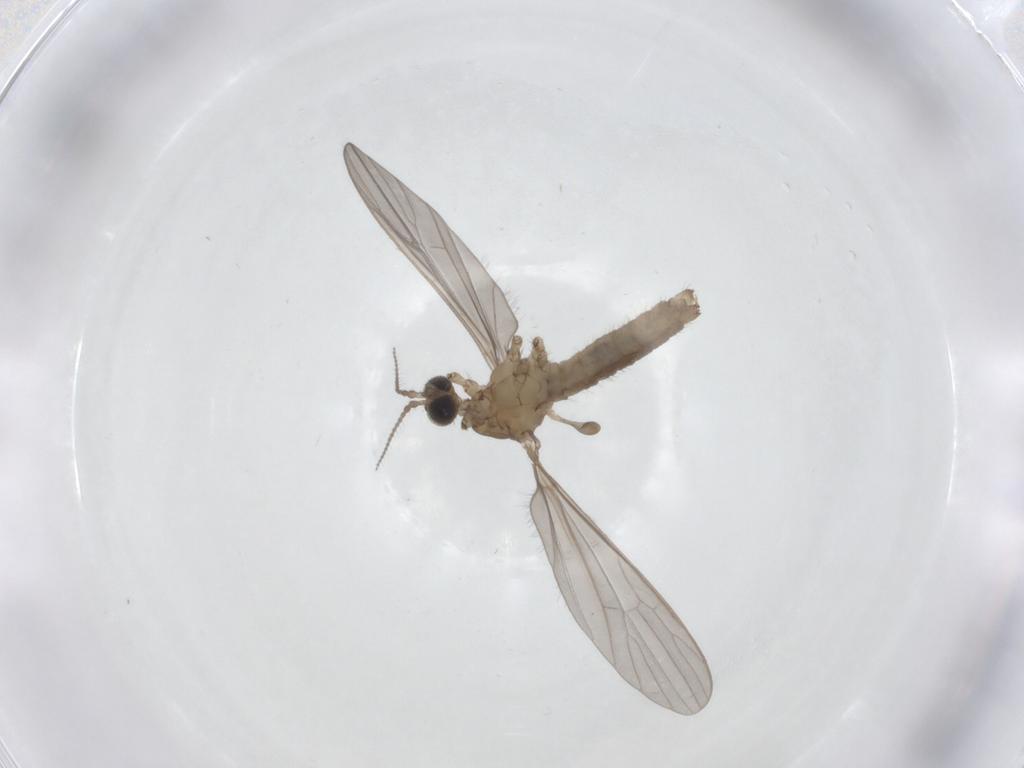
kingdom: Animalia
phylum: Arthropoda
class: Insecta
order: Diptera
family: Limoniidae
